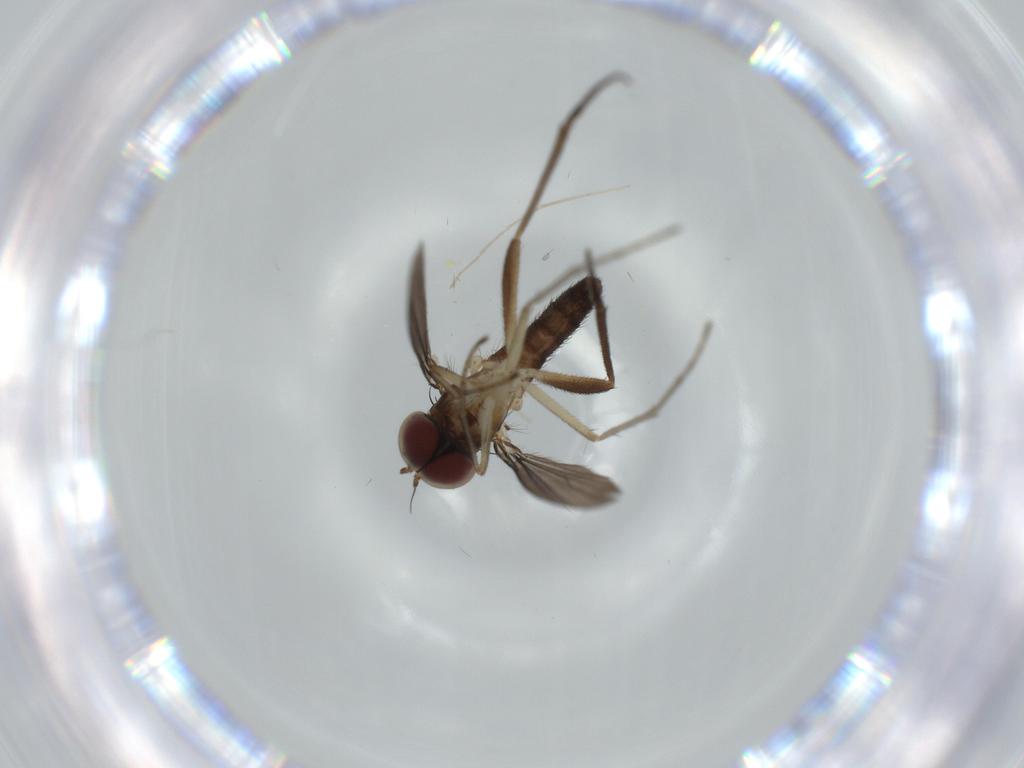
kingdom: Animalia
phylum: Arthropoda
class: Insecta
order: Diptera
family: Dolichopodidae
